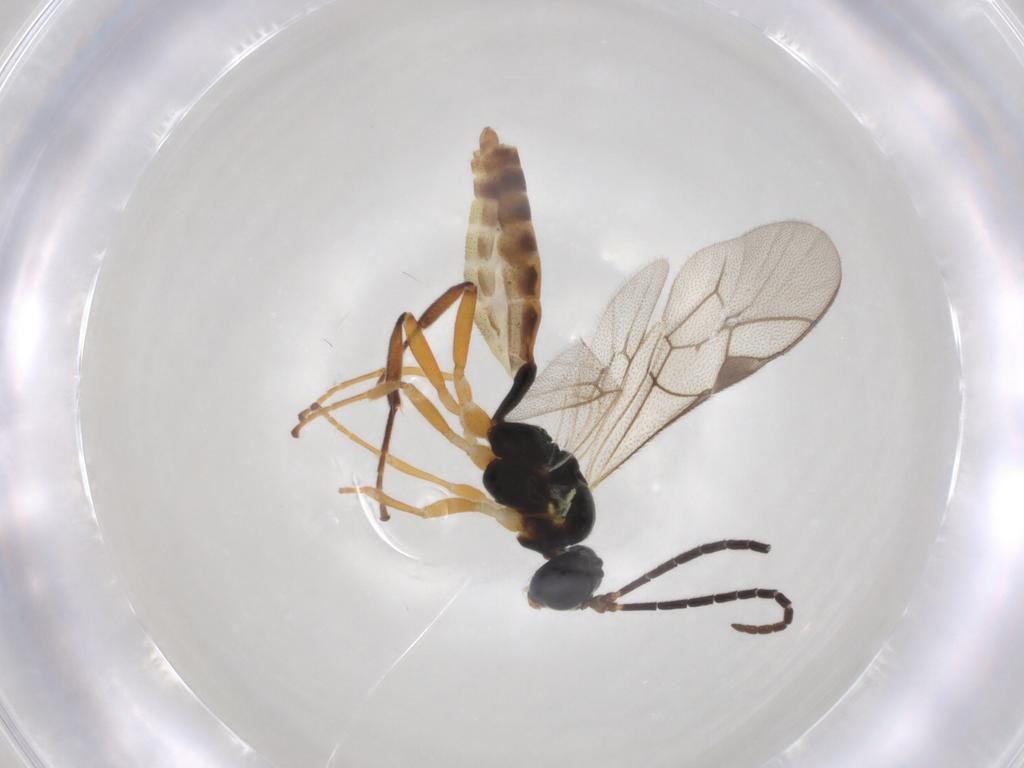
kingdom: Animalia
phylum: Arthropoda
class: Insecta
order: Hymenoptera
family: Ichneumonidae
